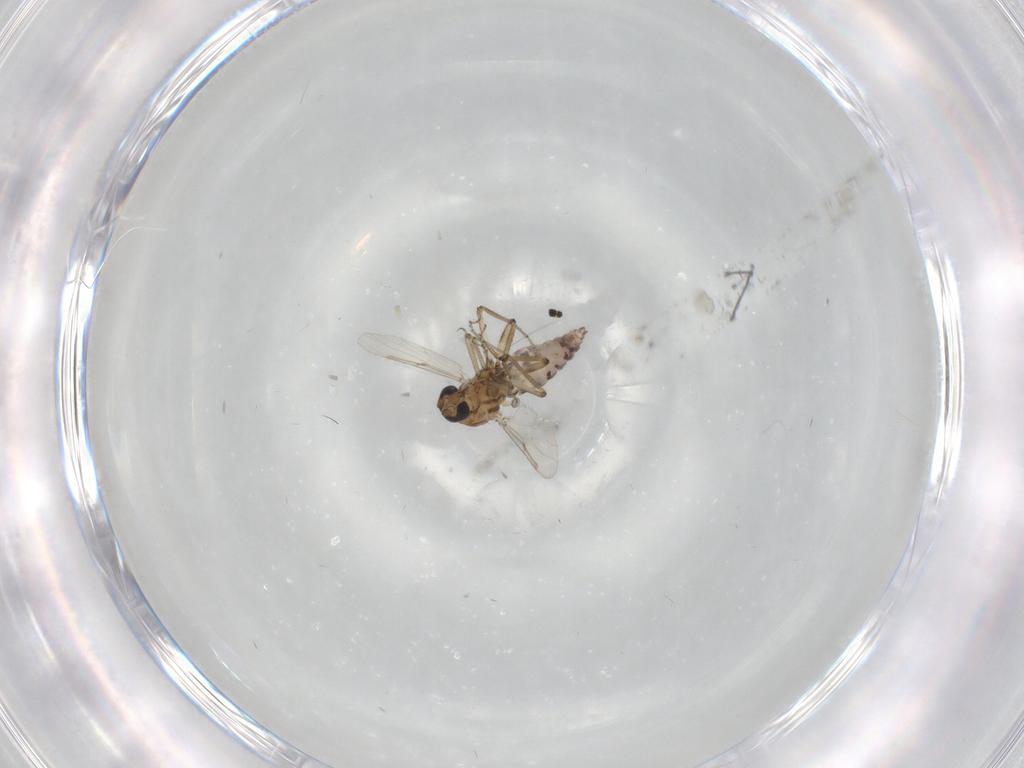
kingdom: Animalia
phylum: Arthropoda
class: Insecta
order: Diptera
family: Ceratopogonidae
